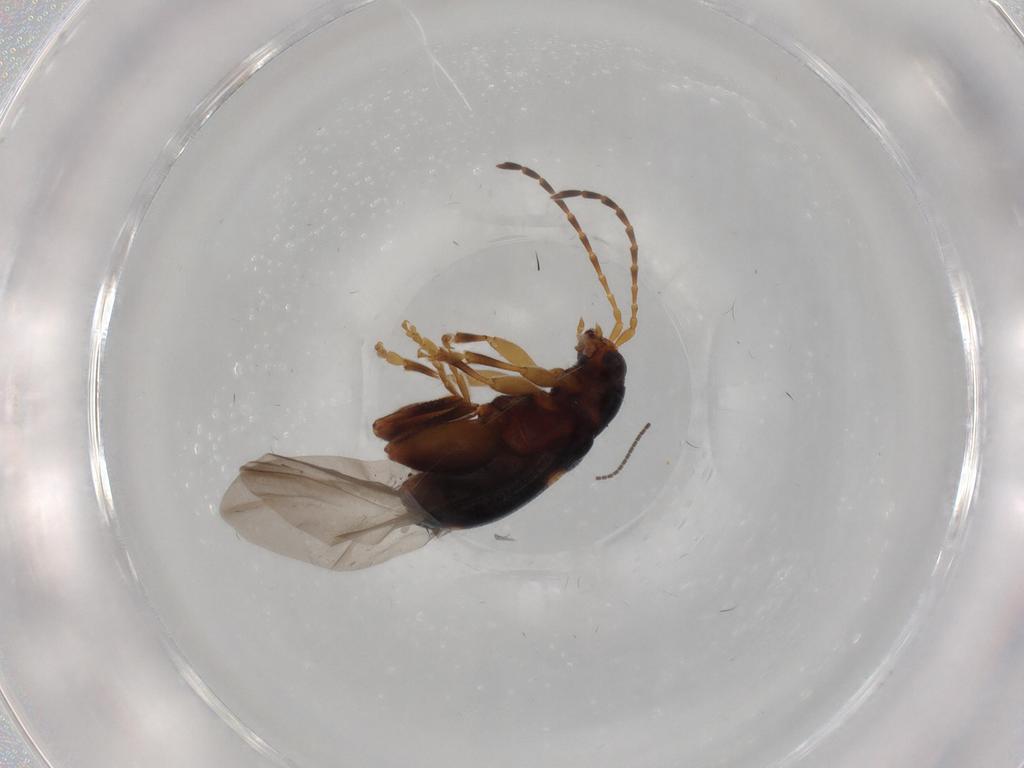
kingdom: Animalia
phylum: Arthropoda
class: Insecta
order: Coleoptera
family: Chrysomelidae
